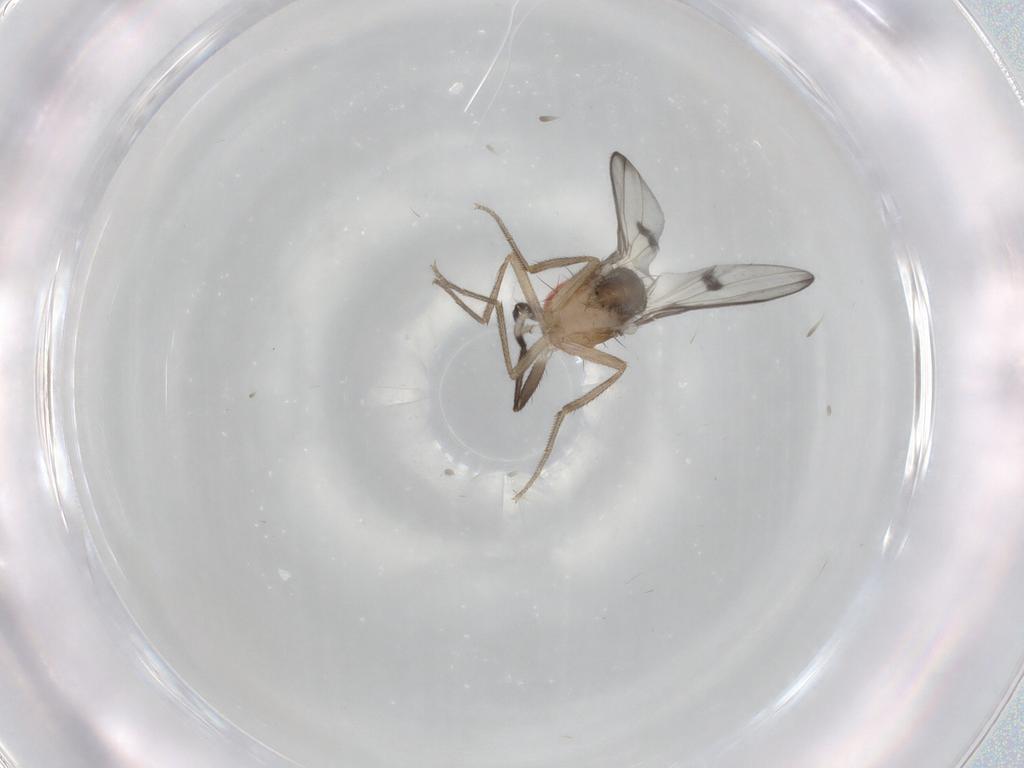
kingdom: Animalia
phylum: Arthropoda
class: Insecta
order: Diptera
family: Drosophilidae
